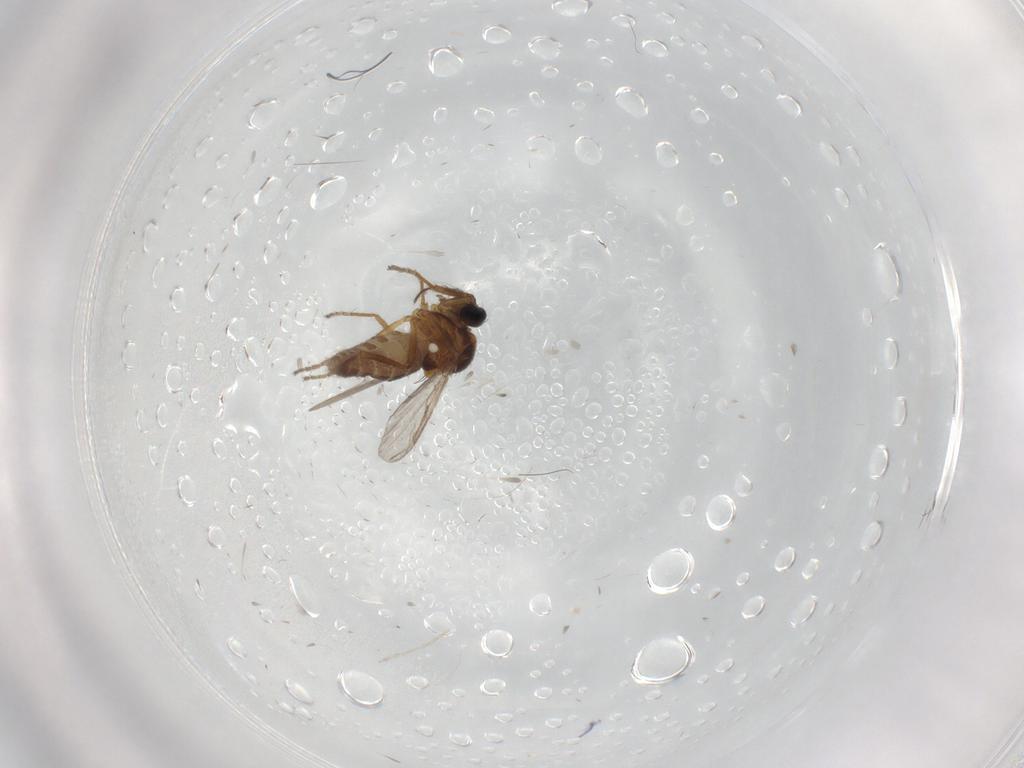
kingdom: Animalia
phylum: Arthropoda
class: Insecta
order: Diptera
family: Ceratopogonidae
